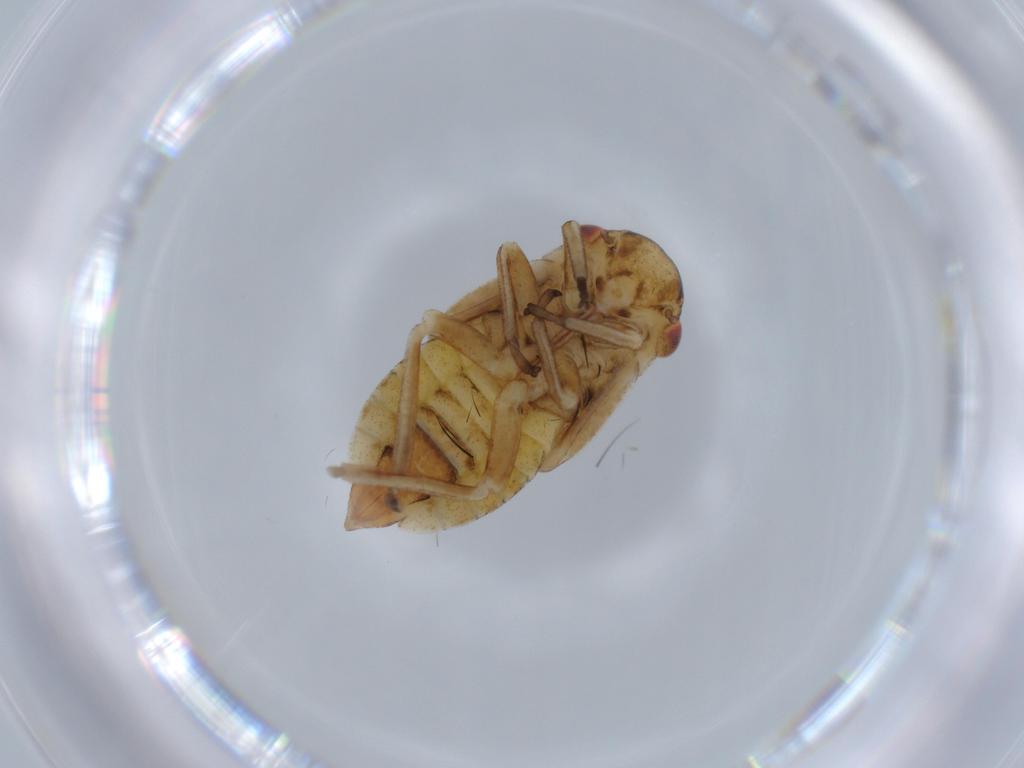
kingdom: Animalia
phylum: Arthropoda
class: Insecta
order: Hemiptera
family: Cicadellidae
